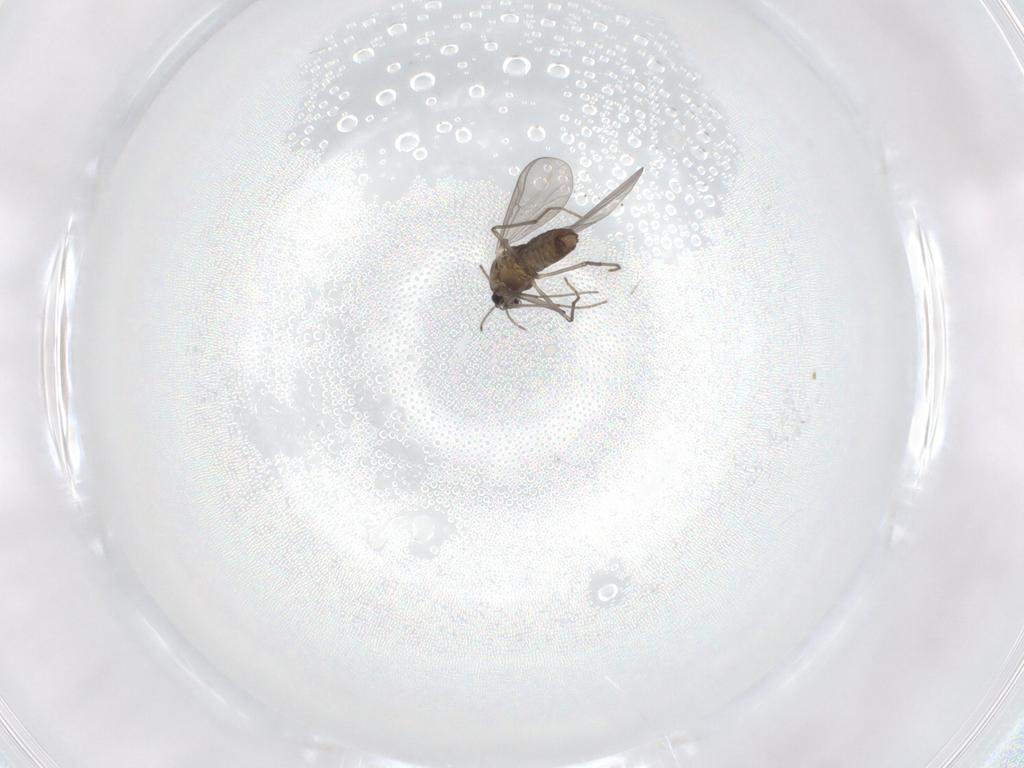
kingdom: Animalia
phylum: Arthropoda
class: Insecta
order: Diptera
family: Chironomidae
